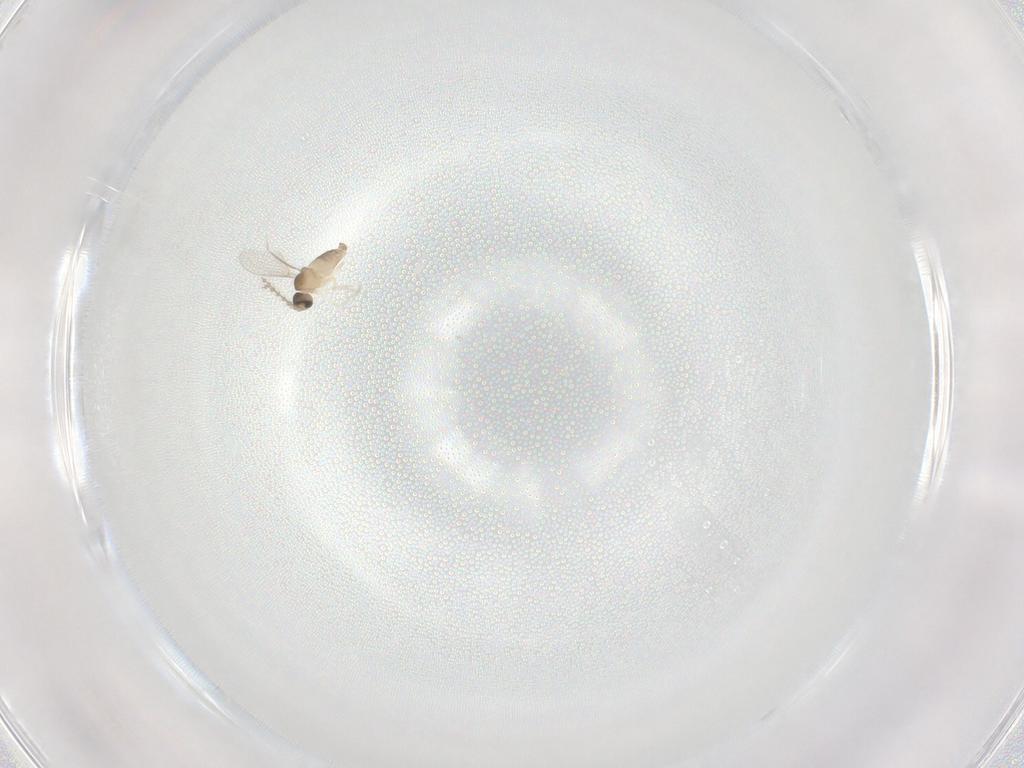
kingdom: Animalia
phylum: Arthropoda
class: Insecta
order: Diptera
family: Cecidomyiidae
